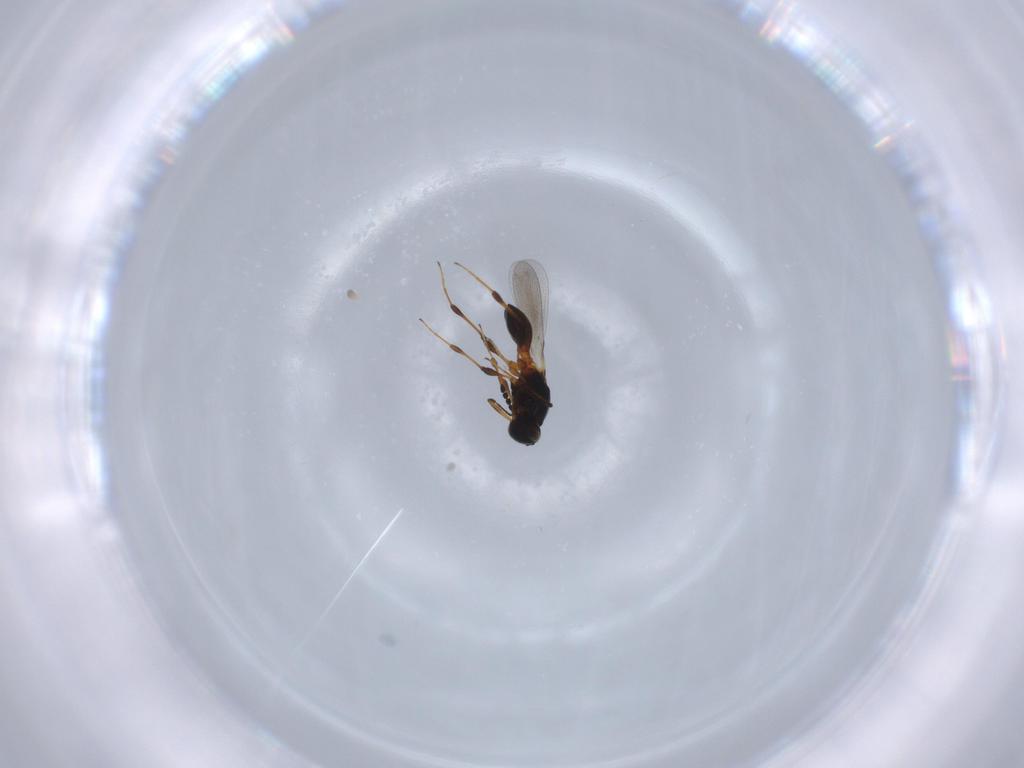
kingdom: Animalia
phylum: Arthropoda
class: Insecta
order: Hymenoptera
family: Platygastridae
